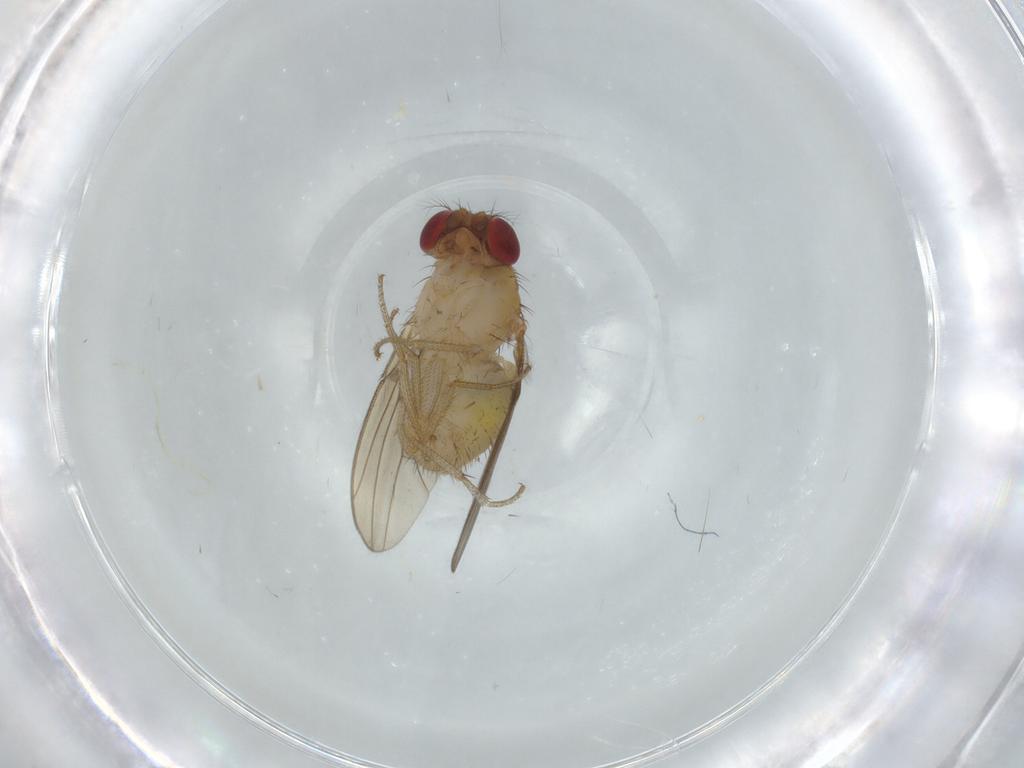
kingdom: Animalia
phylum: Arthropoda
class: Insecta
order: Diptera
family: Drosophilidae
